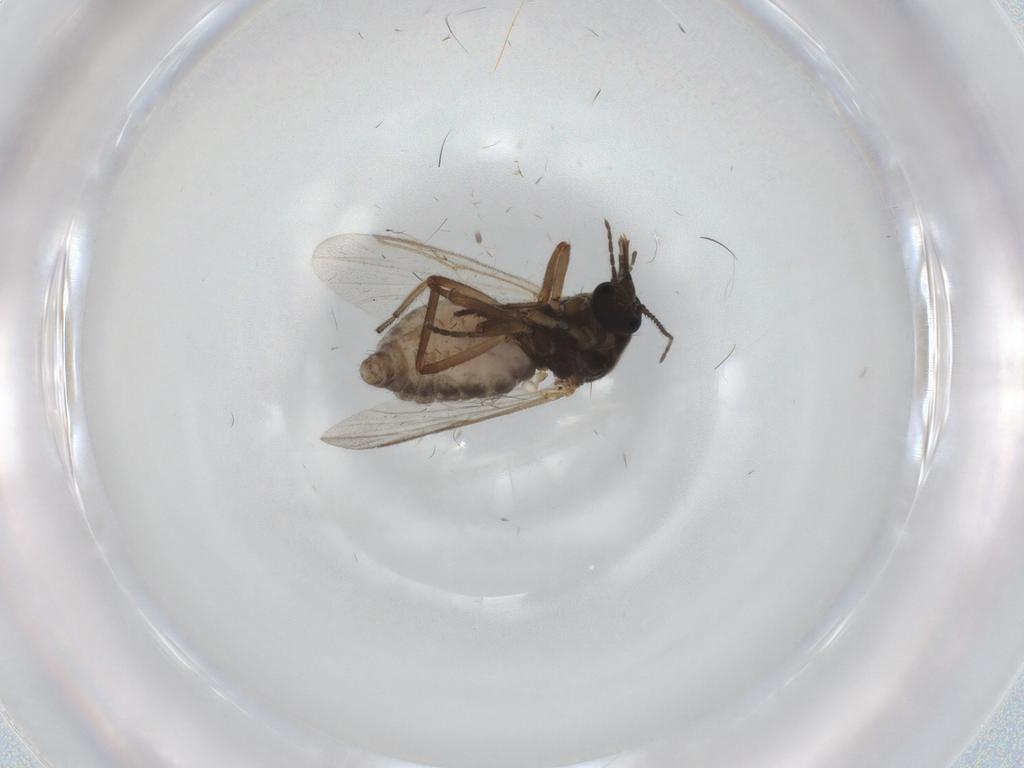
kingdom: Animalia
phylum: Arthropoda
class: Insecta
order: Diptera
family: Ceratopogonidae
